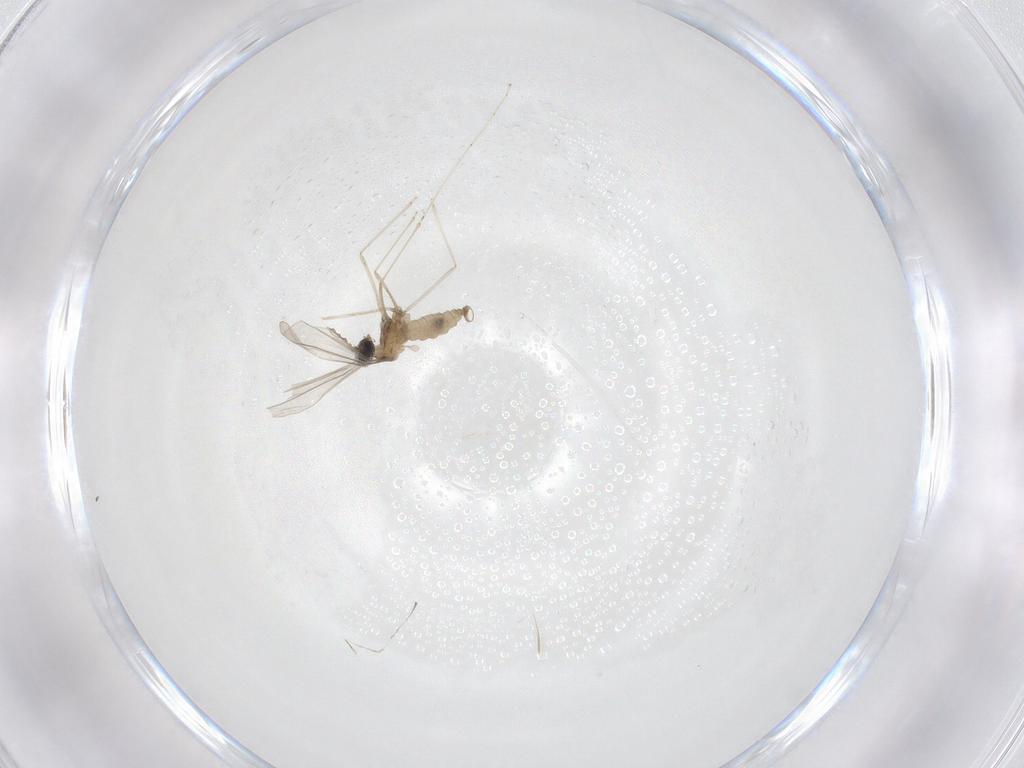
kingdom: Animalia
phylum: Arthropoda
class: Insecta
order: Diptera
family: Cecidomyiidae
